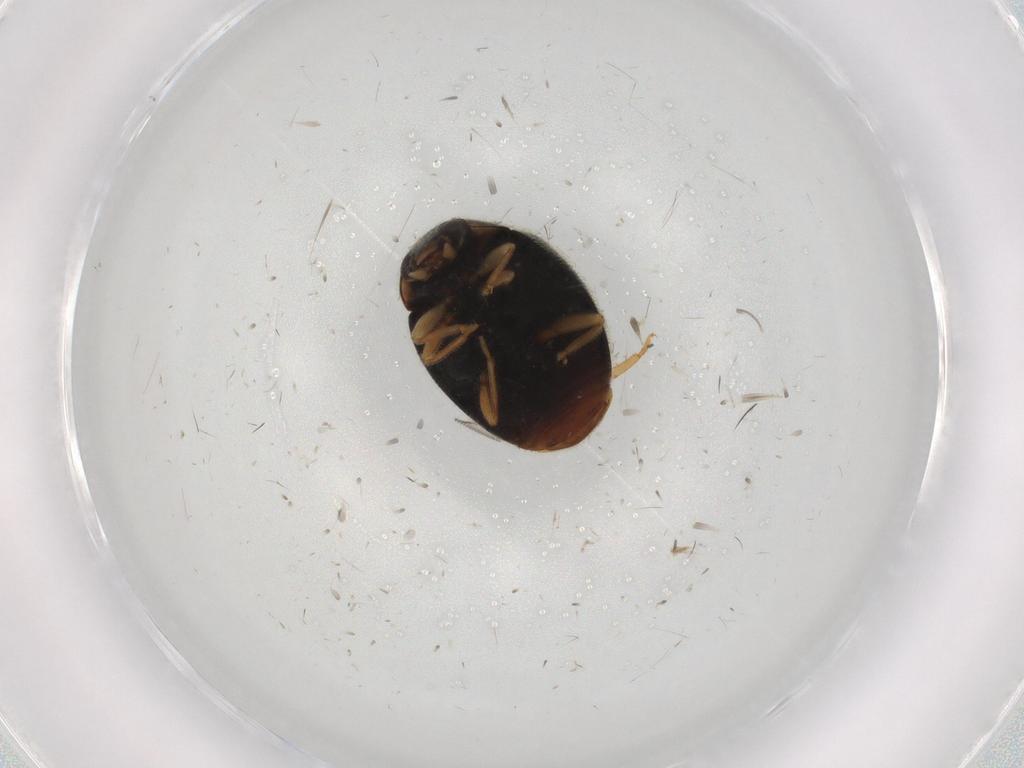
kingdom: Animalia
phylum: Arthropoda
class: Insecta
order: Coleoptera
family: Coccinellidae
